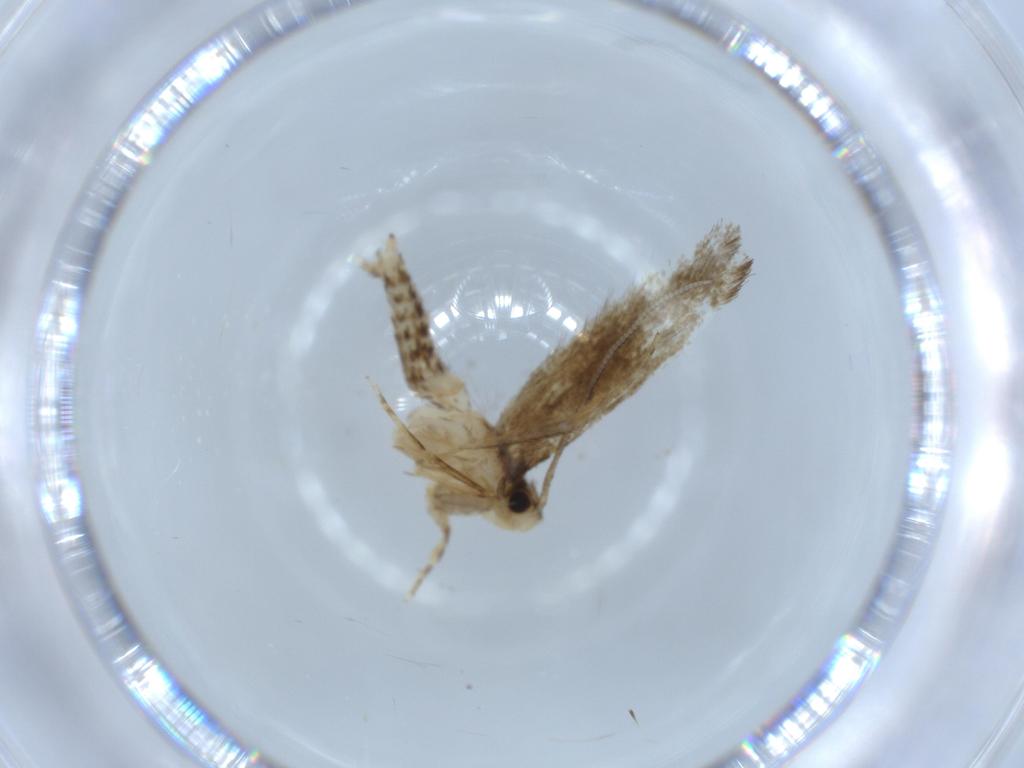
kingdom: Animalia
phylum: Arthropoda
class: Insecta
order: Lepidoptera
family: Tineidae
